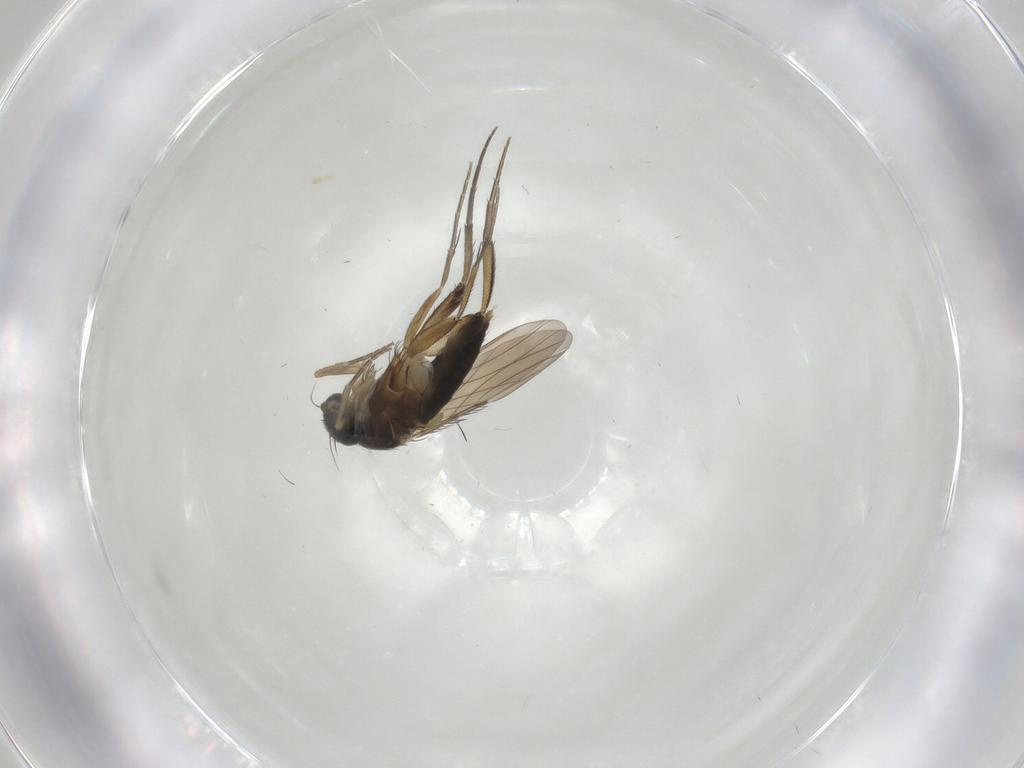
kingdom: Animalia
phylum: Arthropoda
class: Insecta
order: Diptera
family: Phoridae
